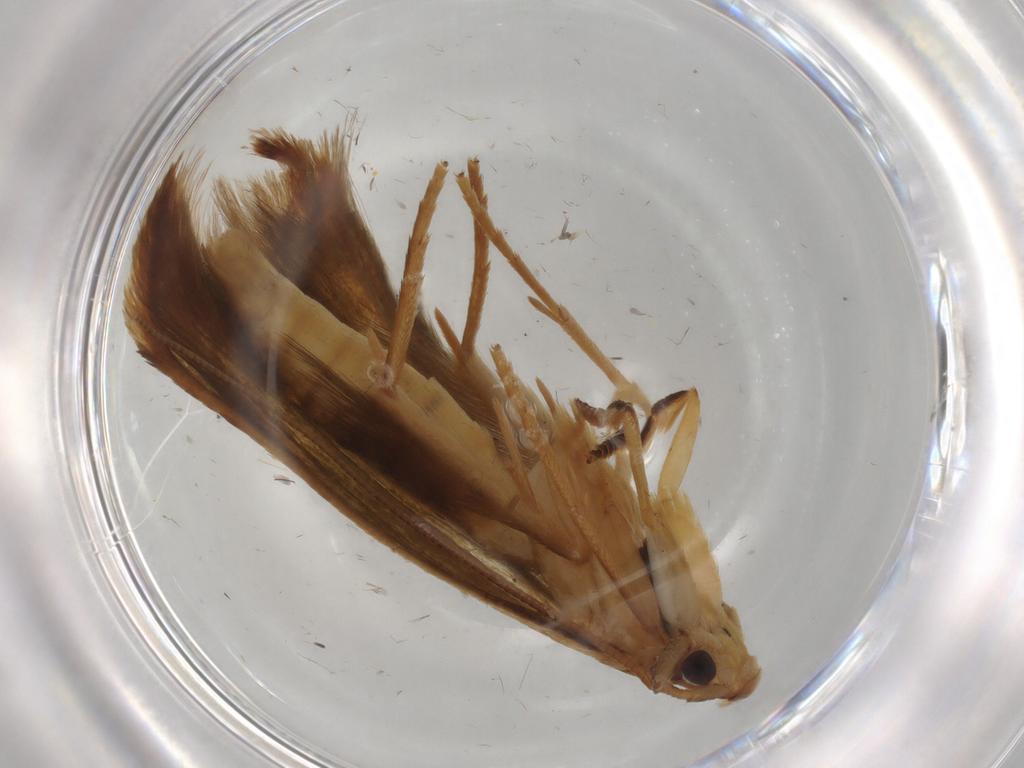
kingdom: Animalia
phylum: Arthropoda
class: Insecta
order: Lepidoptera
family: Tineidae
